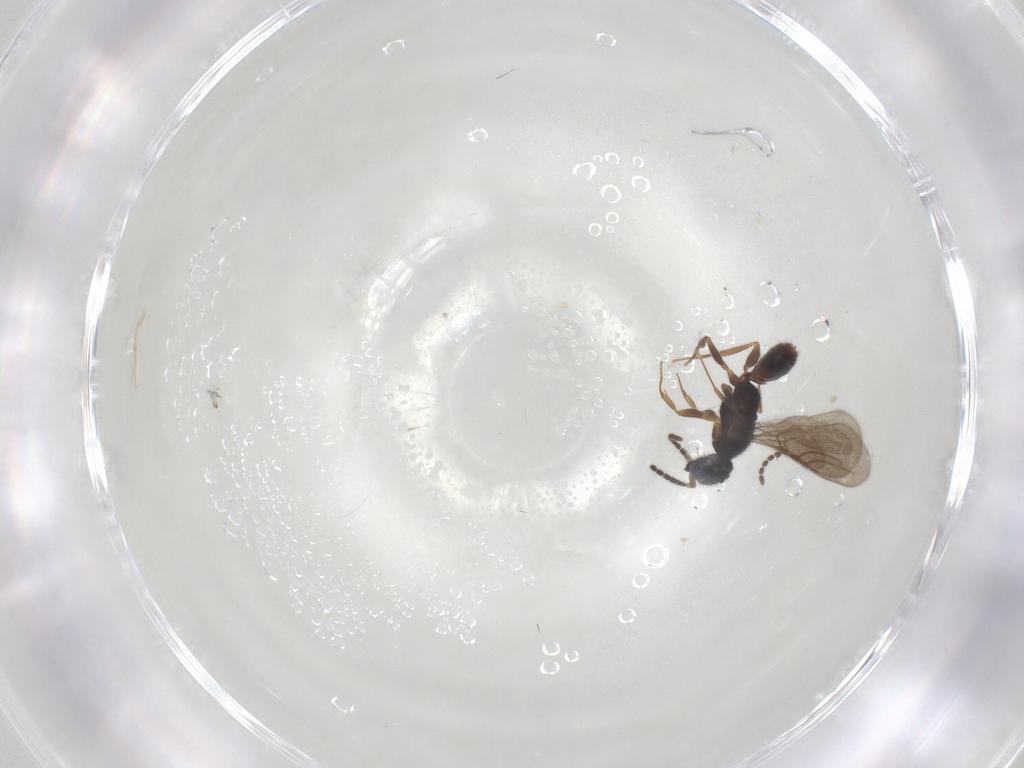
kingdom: Animalia
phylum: Arthropoda
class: Insecta
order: Hymenoptera
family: Bethylidae
